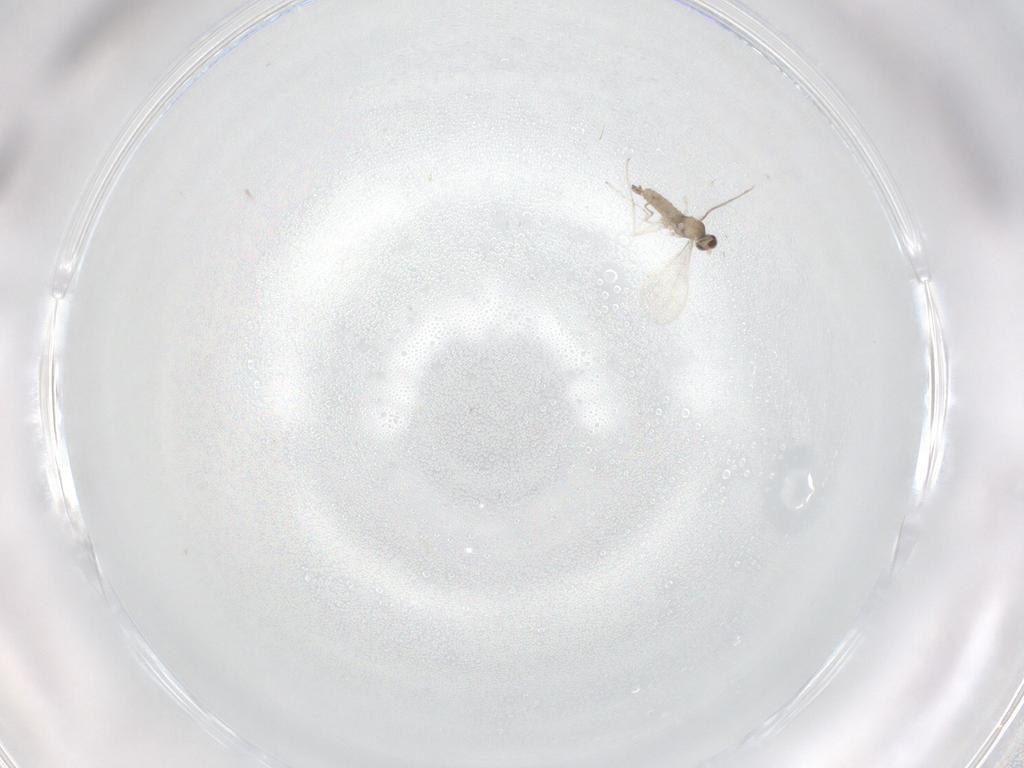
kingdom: Animalia
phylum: Arthropoda
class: Insecta
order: Diptera
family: Cecidomyiidae
